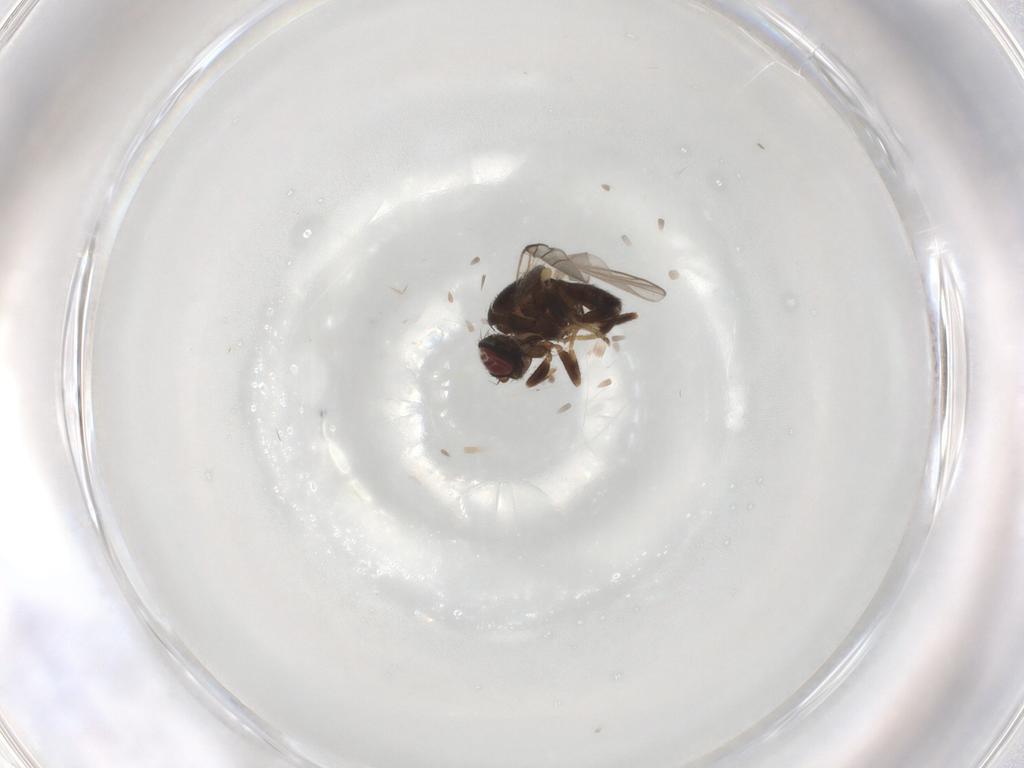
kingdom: Animalia
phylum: Arthropoda
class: Insecta
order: Diptera
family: Chloropidae
